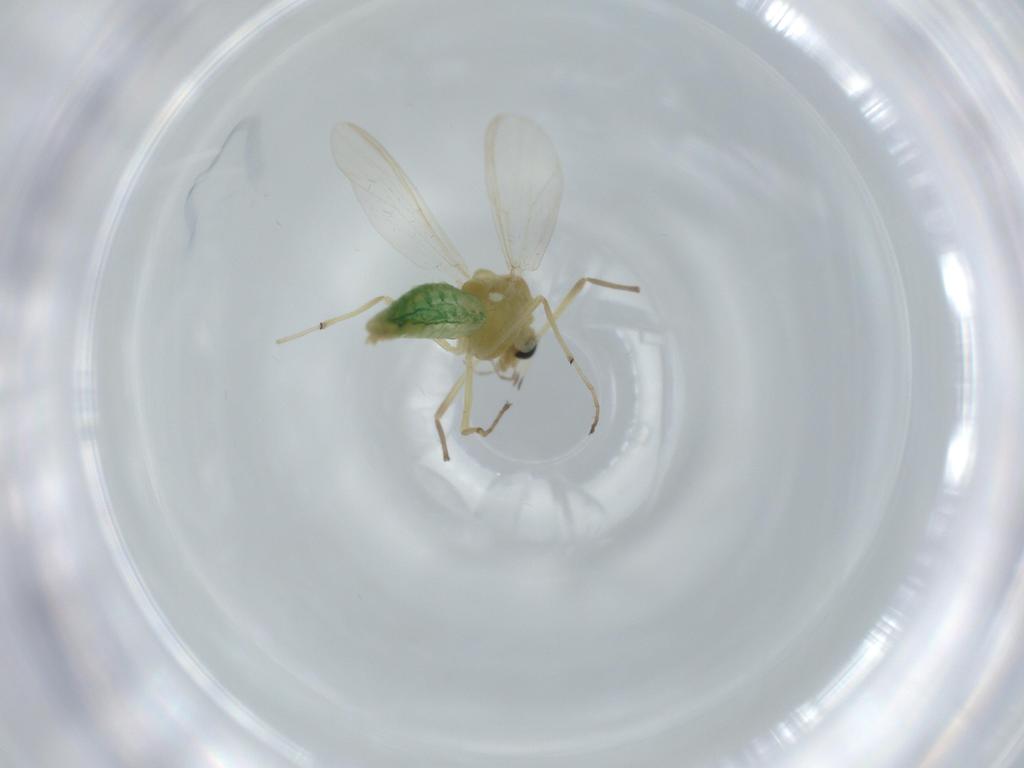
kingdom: Animalia
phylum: Arthropoda
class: Insecta
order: Diptera
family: Chironomidae
